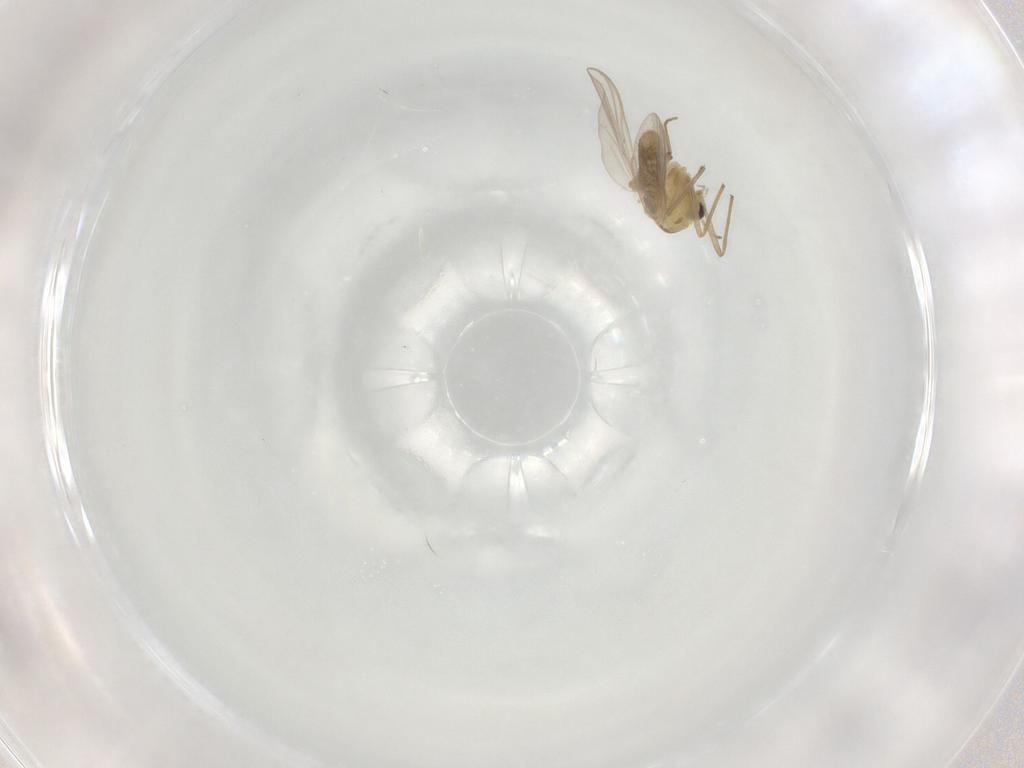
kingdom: Animalia
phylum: Arthropoda
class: Insecta
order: Diptera
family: Chironomidae
